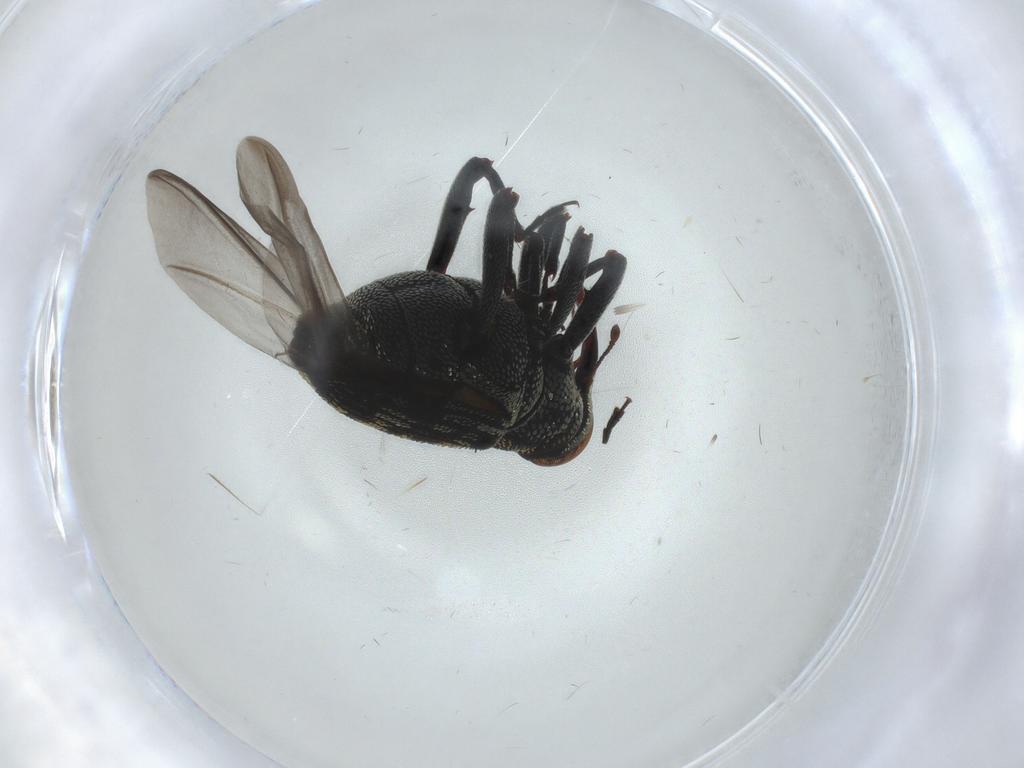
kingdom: Animalia
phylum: Arthropoda
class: Insecta
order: Coleoptera
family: Curculionidae
